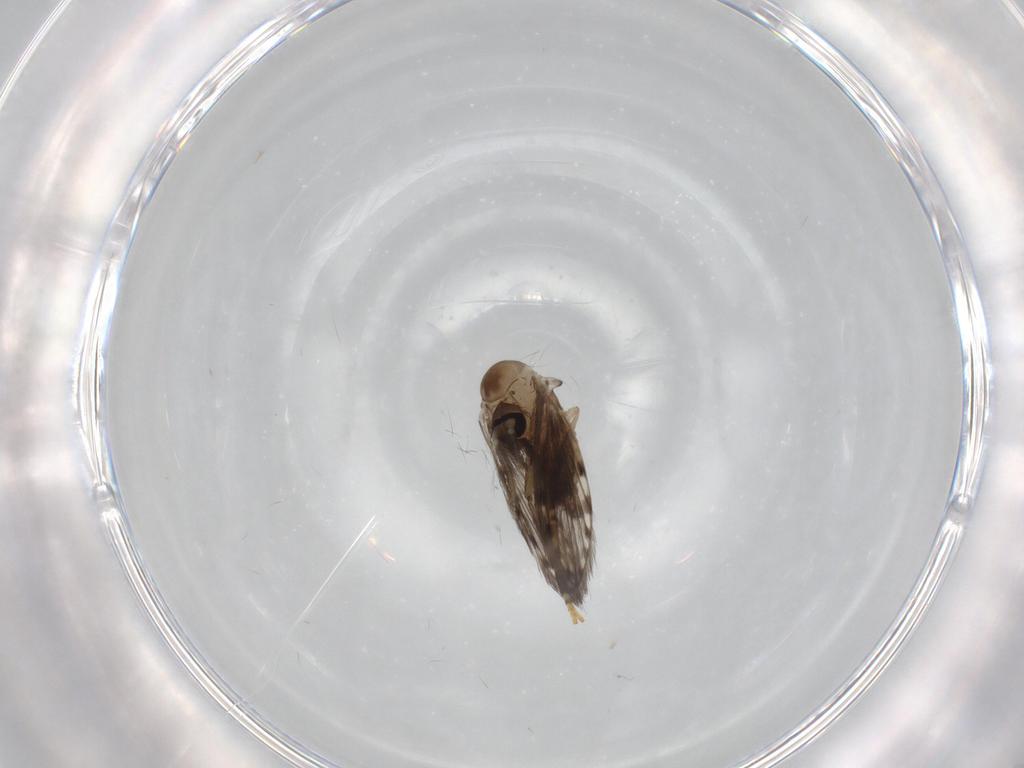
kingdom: Animalia
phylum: Arthropoda
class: Insecta
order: Diptera
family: Psychodidae
